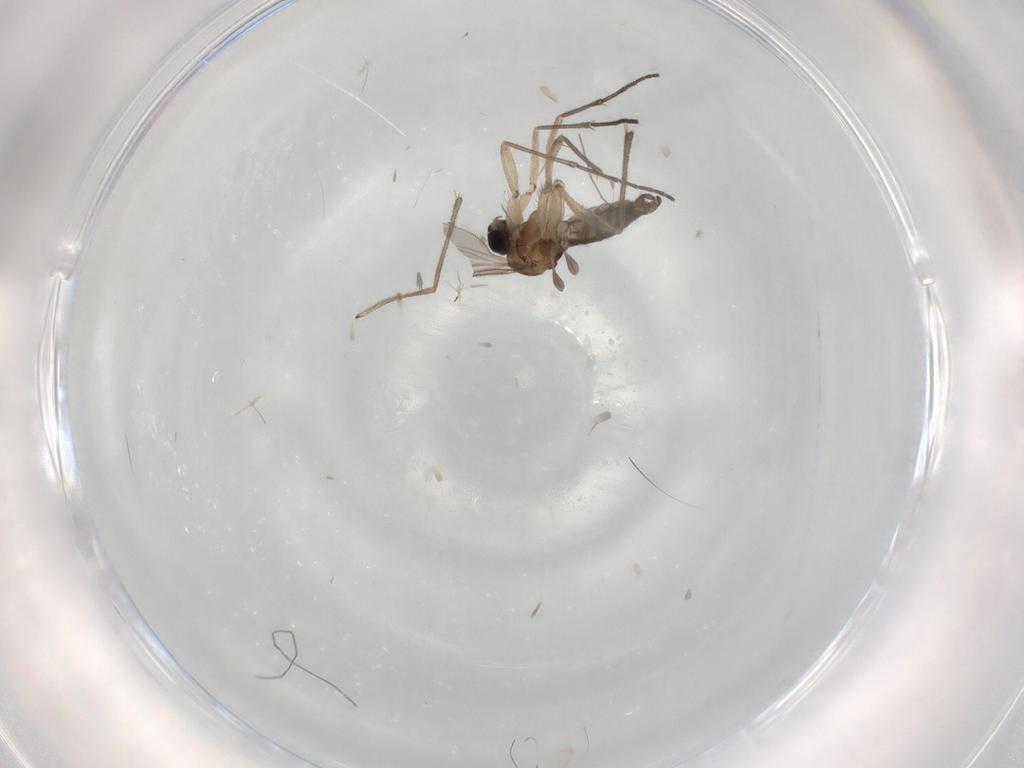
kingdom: Animalia
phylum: Arthropoda
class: Insecta
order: Diptera
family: Sciaridae
